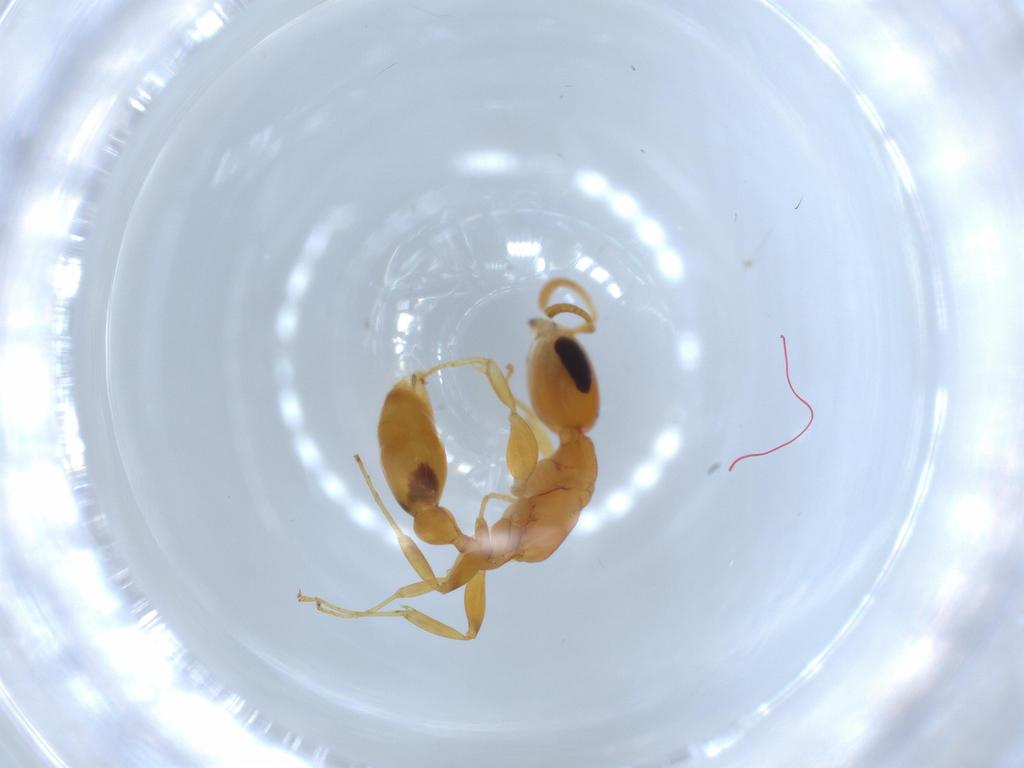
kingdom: Animalia
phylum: Arthropoda
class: Insecta
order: Hymenoptera
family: Formicidae
